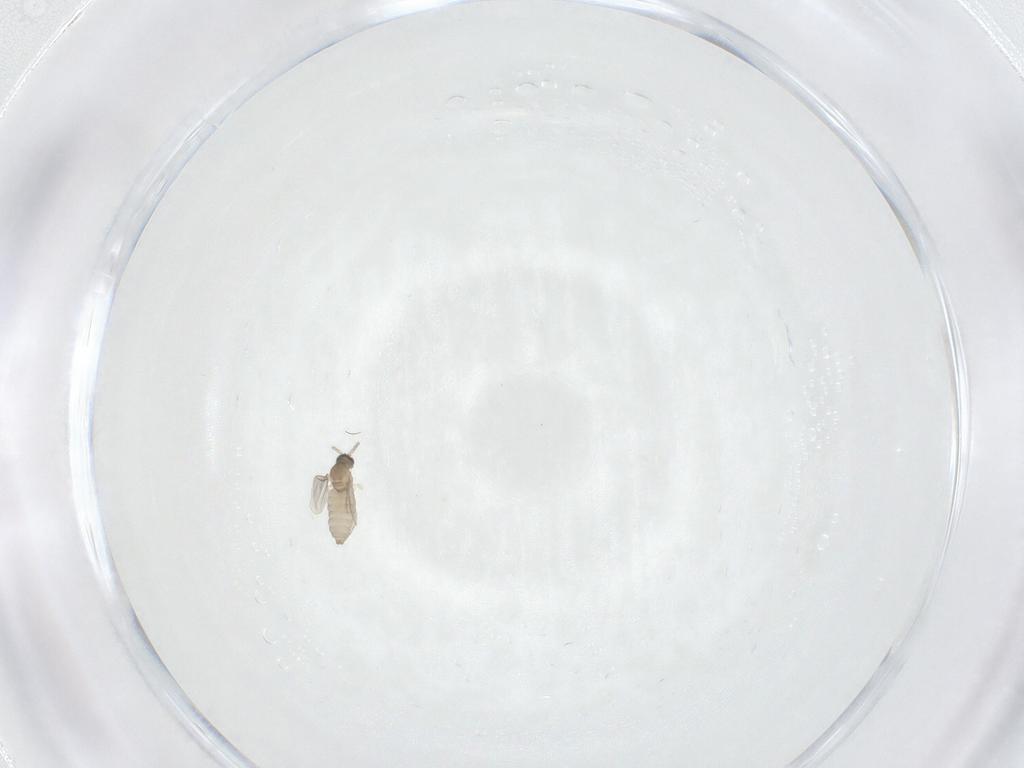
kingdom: Animalia
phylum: Arthropoda
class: Insecta
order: Diptera
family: Cecidomyiidae
